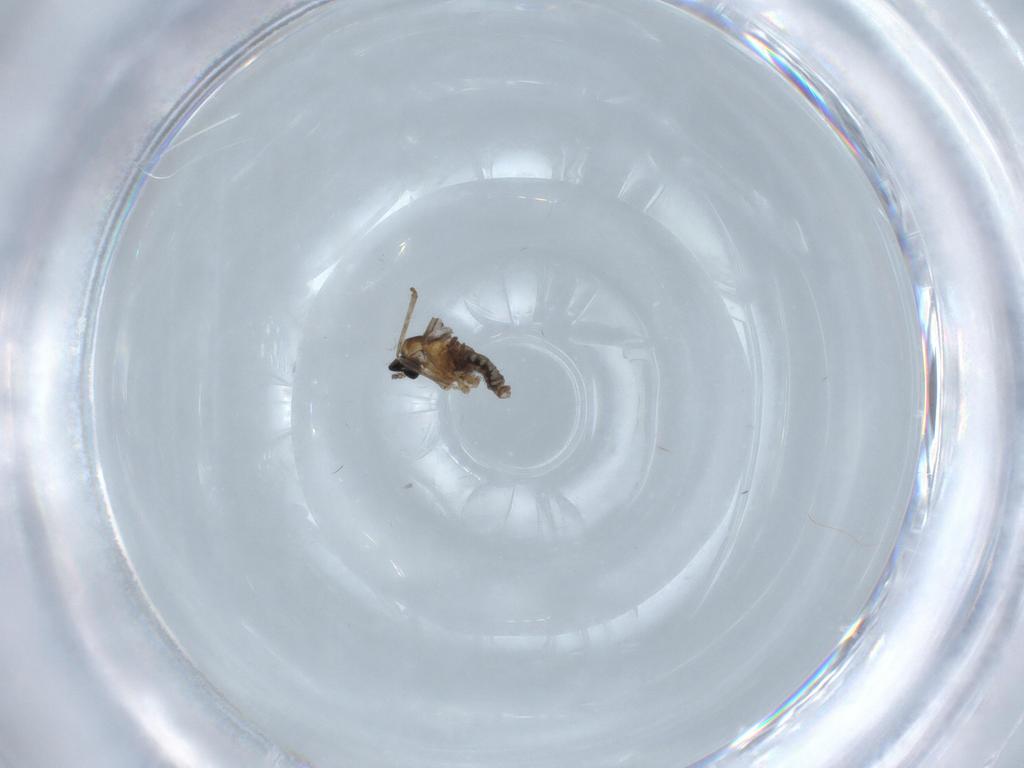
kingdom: Animalia
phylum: Arthropoda
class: Insecta
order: Diptera
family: Cecidomyiidae
